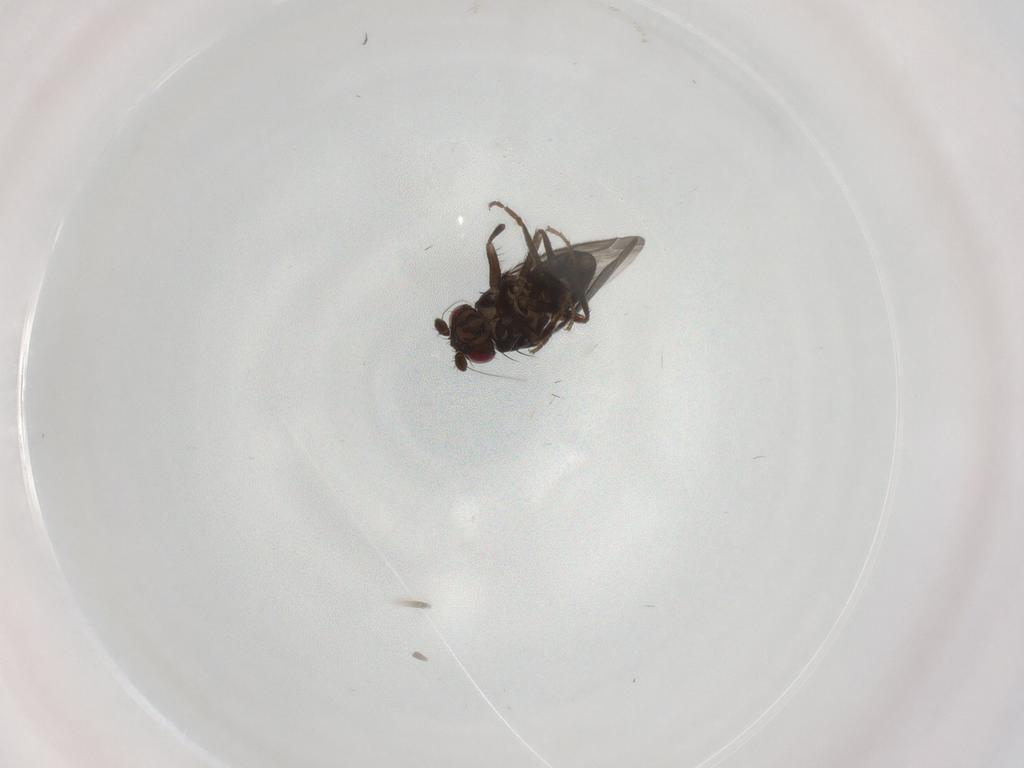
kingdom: Animalia
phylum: Arthropoda
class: Insecta
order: Diptera
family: Sphaeroceridae
